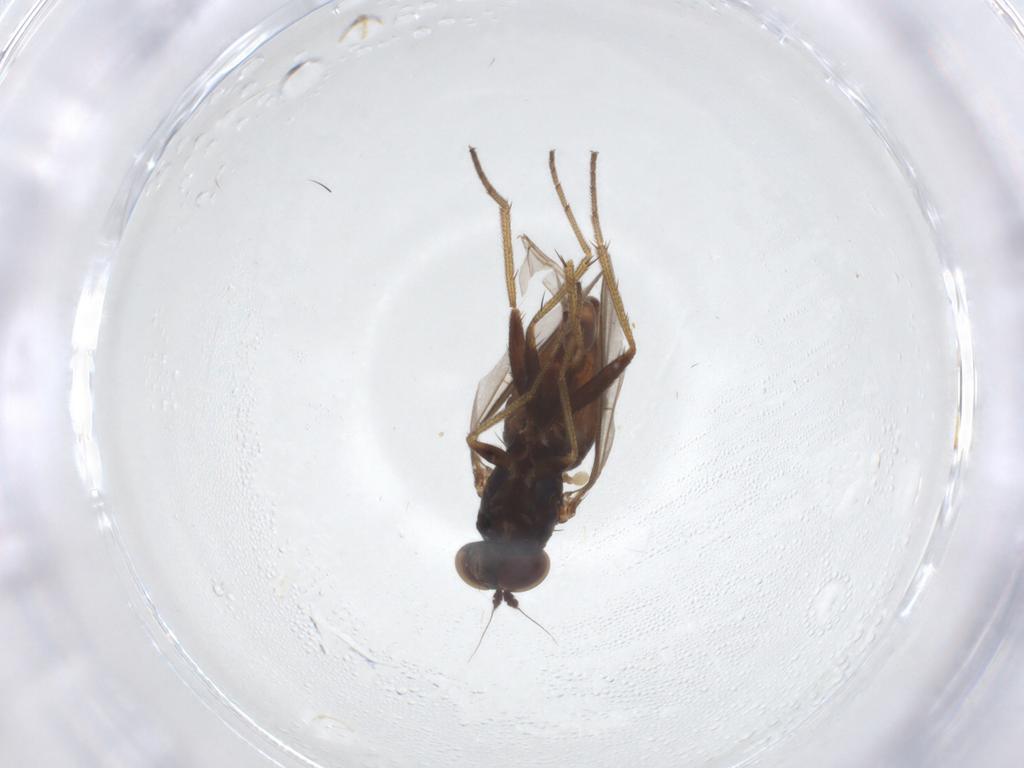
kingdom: Animalia
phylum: Arthropoda
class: Insecta
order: Diptera
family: Dolichopodidae
